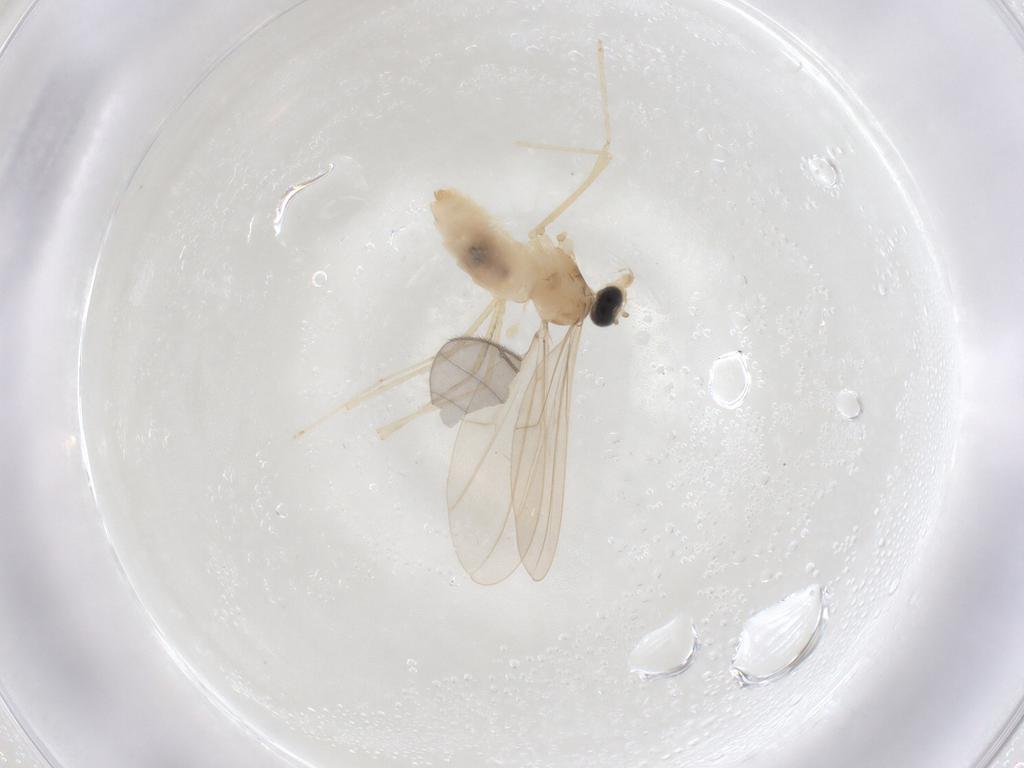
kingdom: Animalia
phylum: Arthropoda
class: Insecta
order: Diptera
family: Cecidomyiidae
